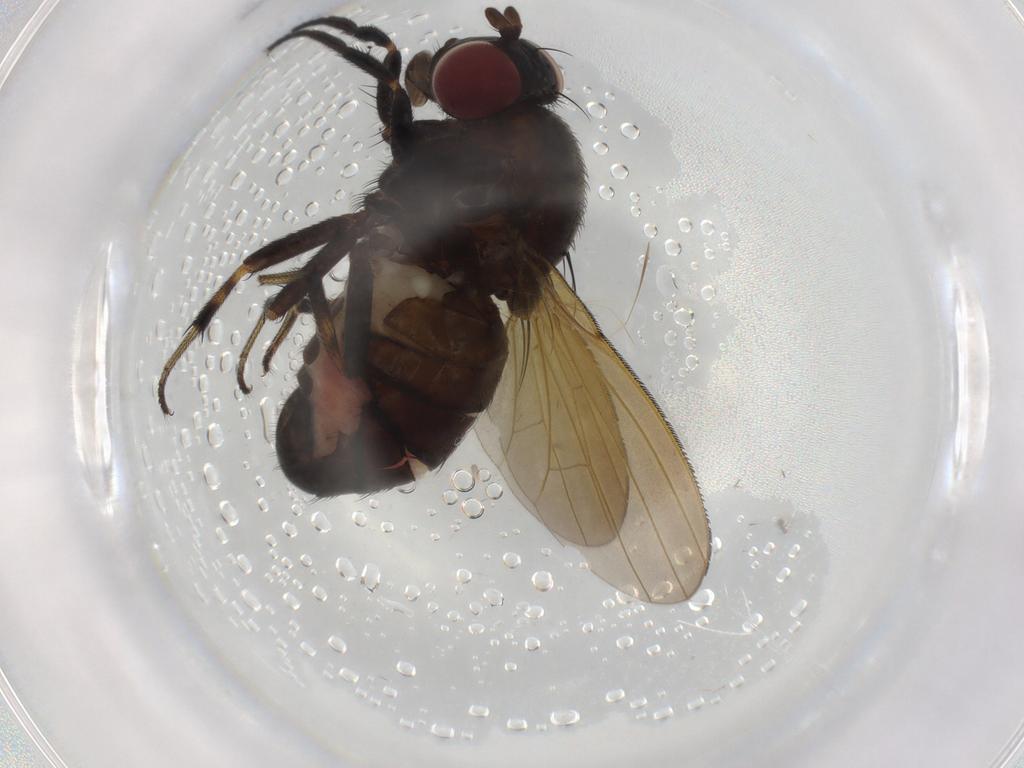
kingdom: Animalia
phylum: Arthropoda
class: Insecta
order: Diptera
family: Lauxaniidae
